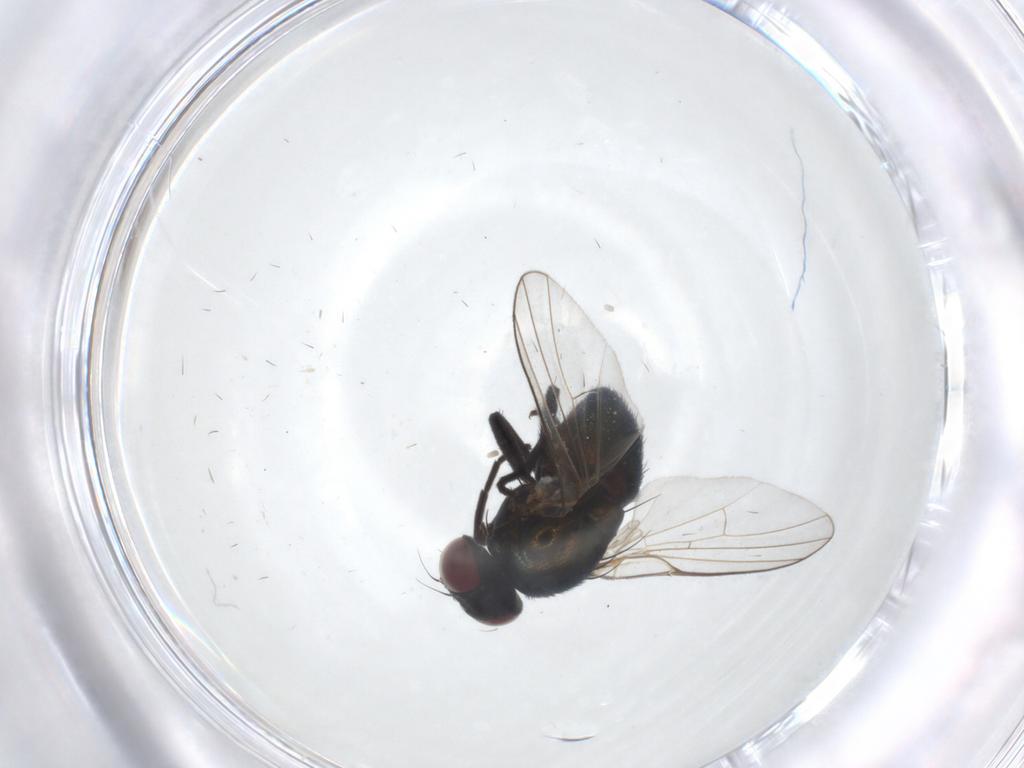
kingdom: Animalia
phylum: Arthropoda
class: Insecta
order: Diptera
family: Agromyzidae
